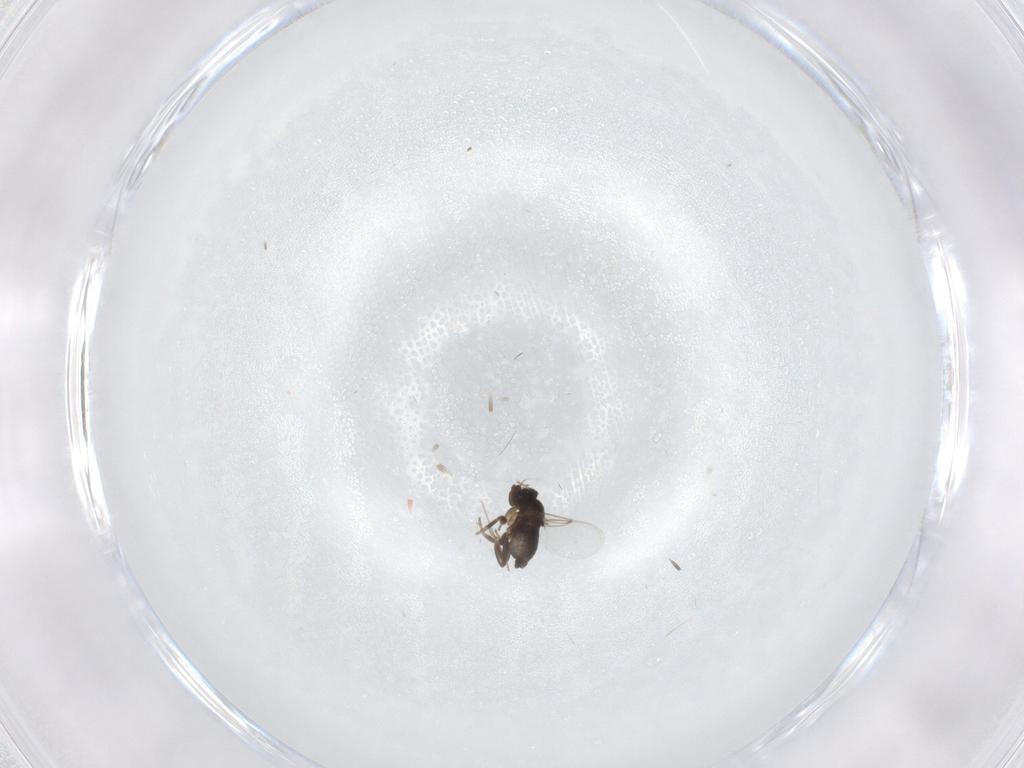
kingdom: Animalia
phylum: Arthropoda
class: Insecta
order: Diptera
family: Phoridae
